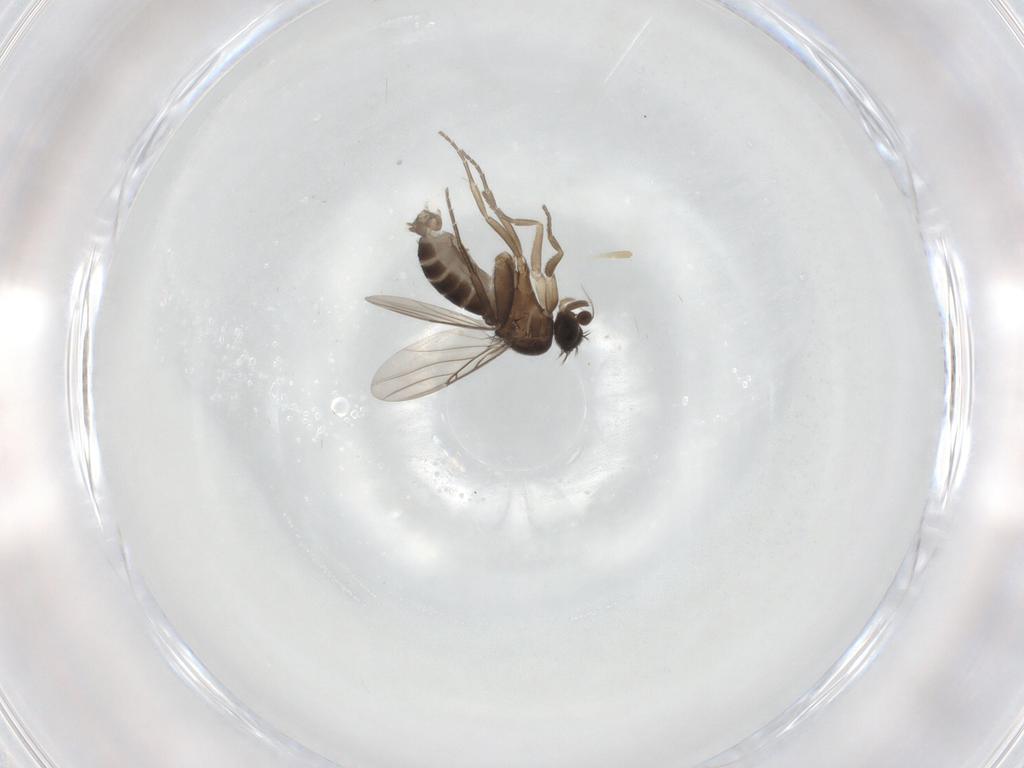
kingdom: Animalia
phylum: Arthropoda
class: Insecta
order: Diptera
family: Phoridae
